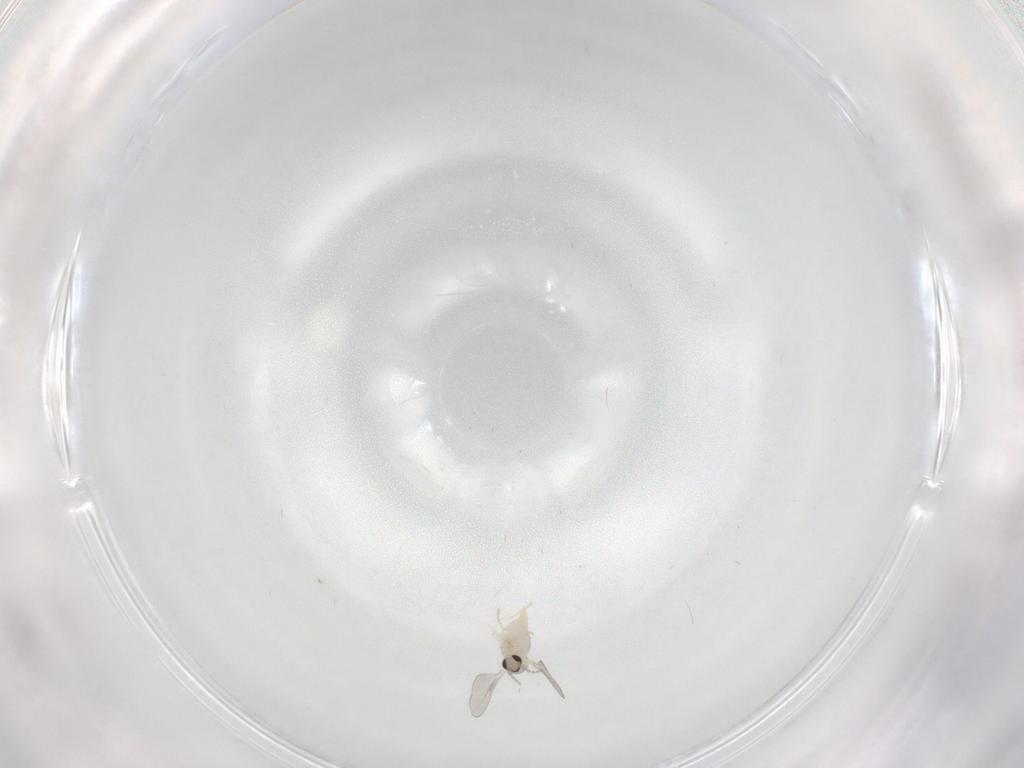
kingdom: Animalia
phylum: Arthropoda
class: Insecta
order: Diptera
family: Cecidomyiidae
